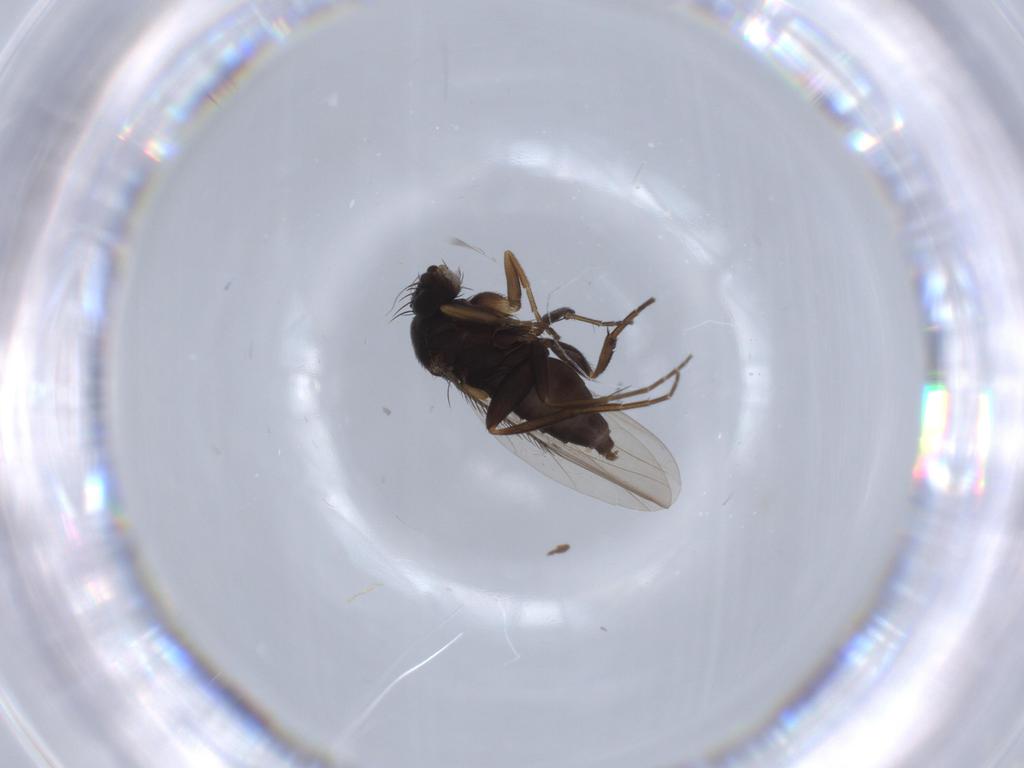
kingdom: Animalia
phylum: Arthropoda
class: Insecta
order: Diptera
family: Phoridae
